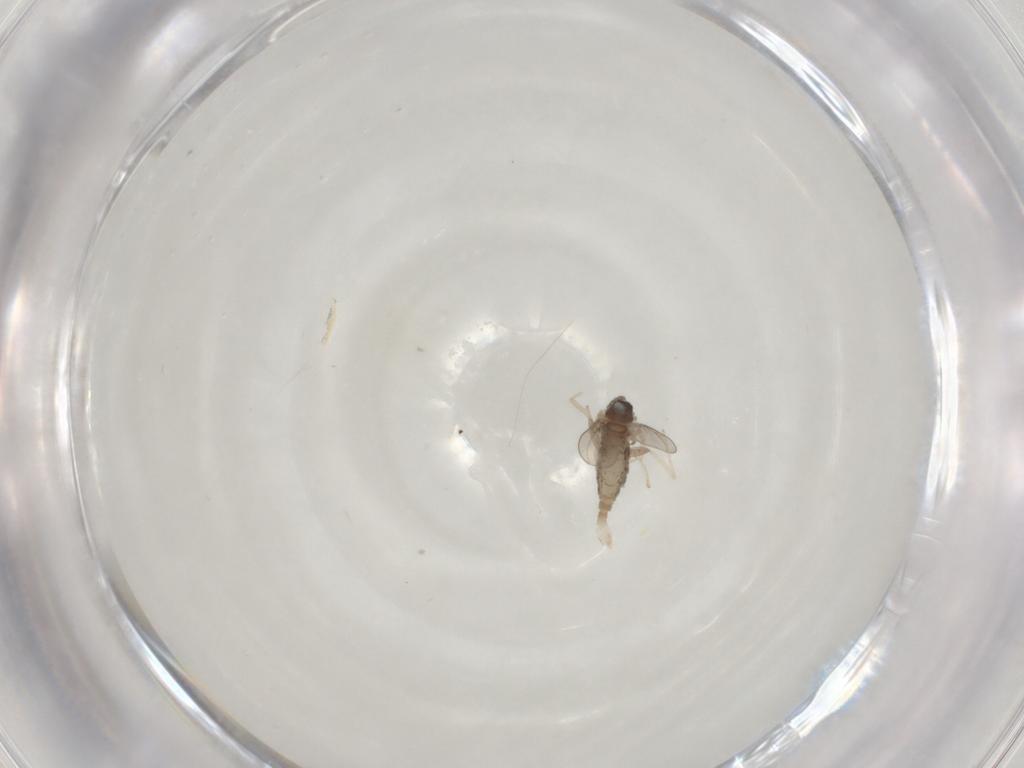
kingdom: Animalia
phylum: Arthropoda
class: Insecta
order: Diptera
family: Cecidomyiidae
